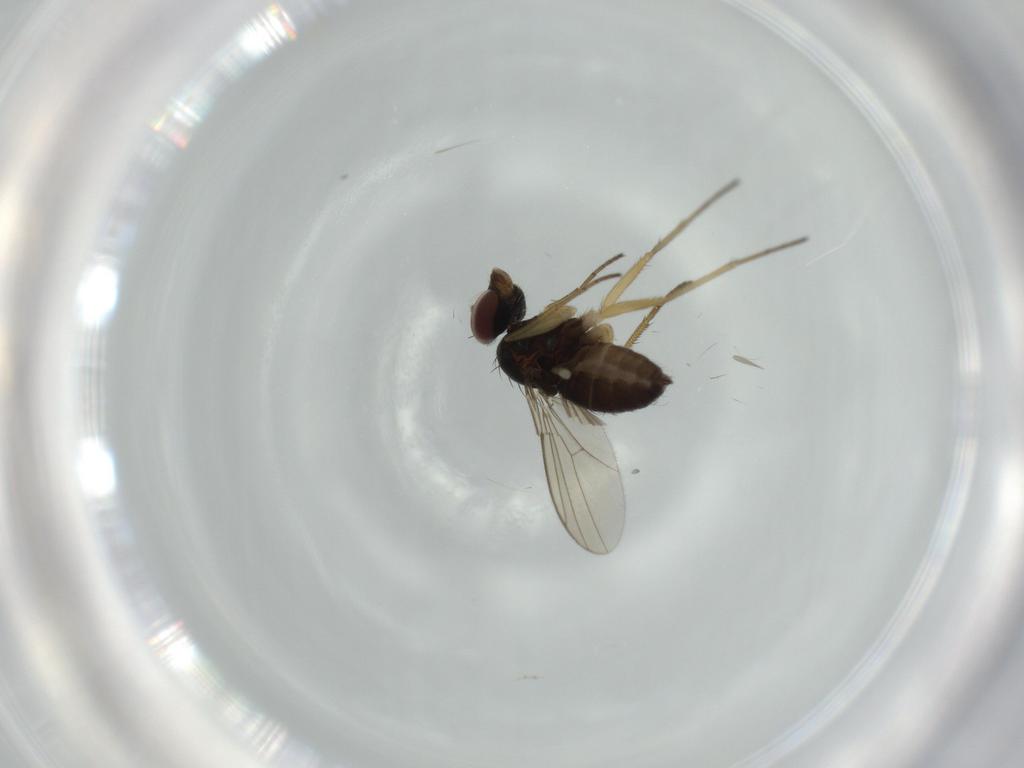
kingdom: Animalia
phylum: Arthropoda
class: Insecta
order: Diptera
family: Dolichopodidae
